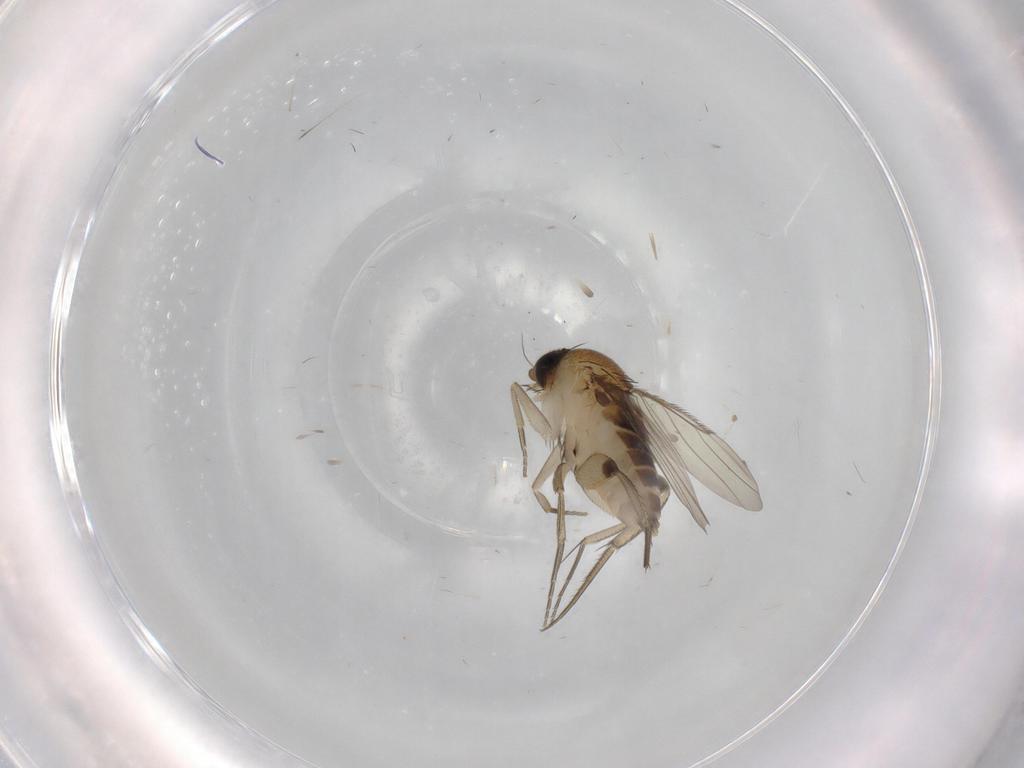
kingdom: Animalia
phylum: Arthropoda
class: Insecta
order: Diptera
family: Phoridae
